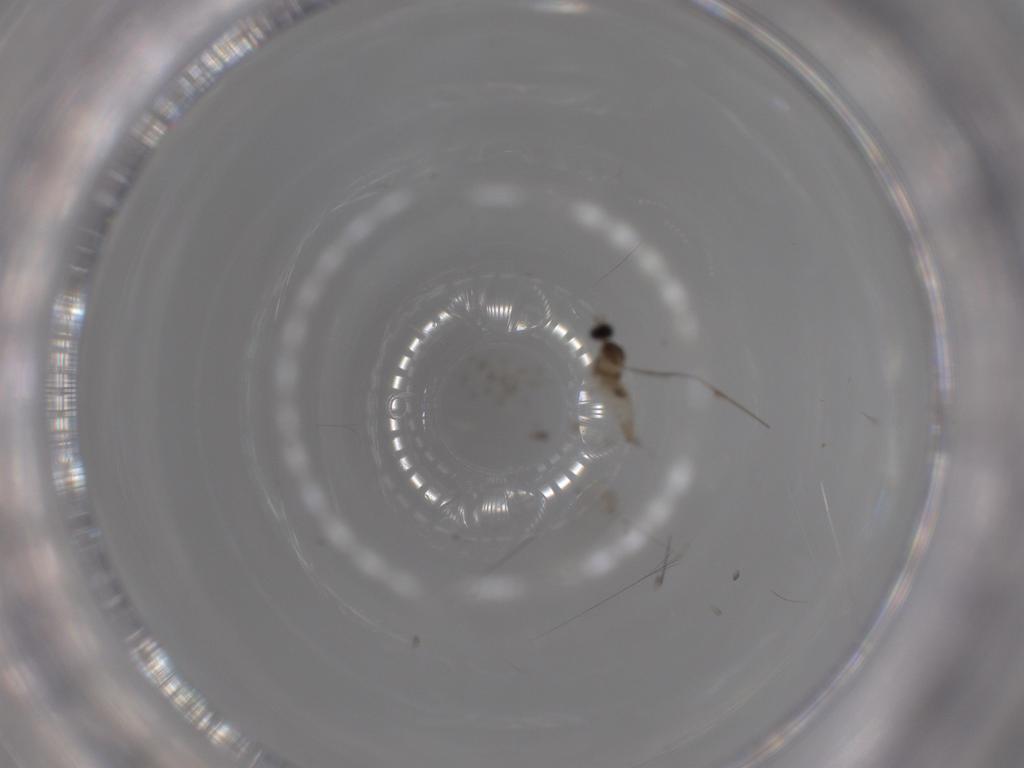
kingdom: Animalia
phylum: Arthropoda
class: Insecta
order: Diptera
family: Cecidomyiidae
